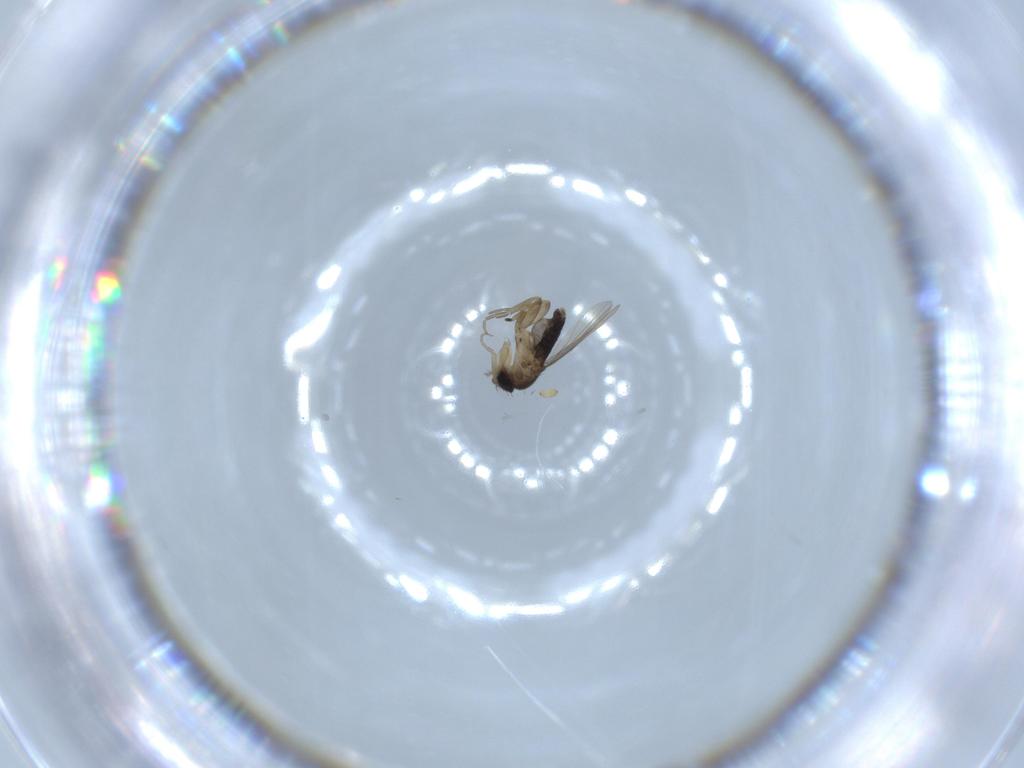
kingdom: Animalia
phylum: Arthropoda
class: Insecta
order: Diptera
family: Phoridae
